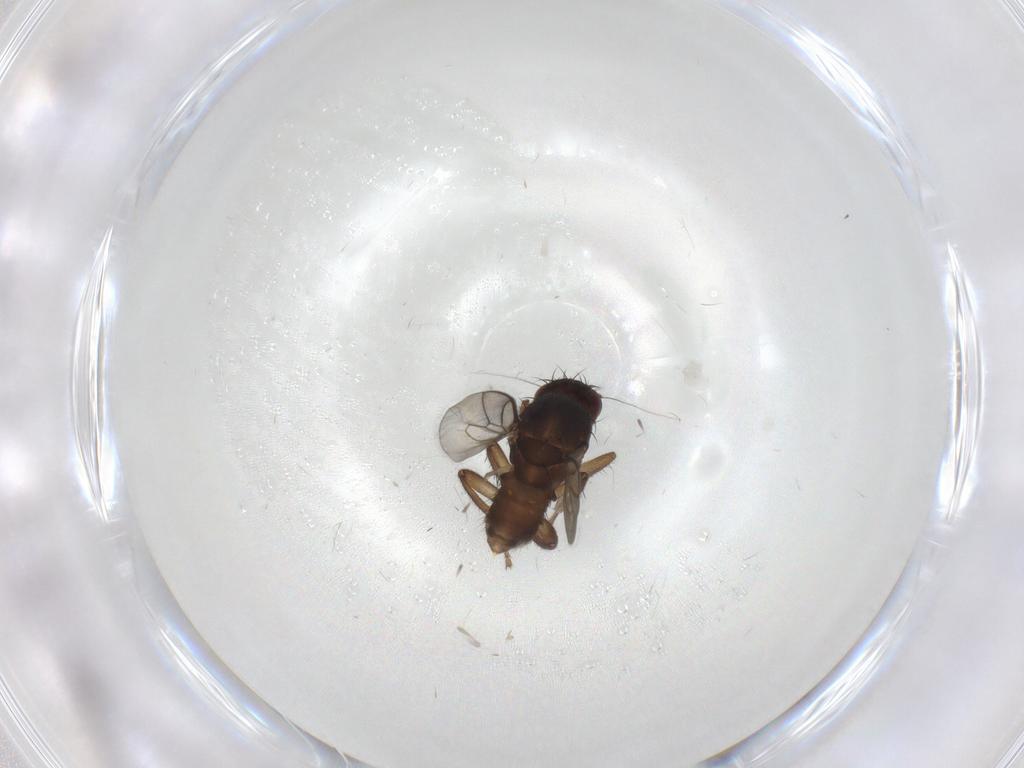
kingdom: Animalia
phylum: Arthropoda
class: Insecta
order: Diptera
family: Sphaeroceridae
